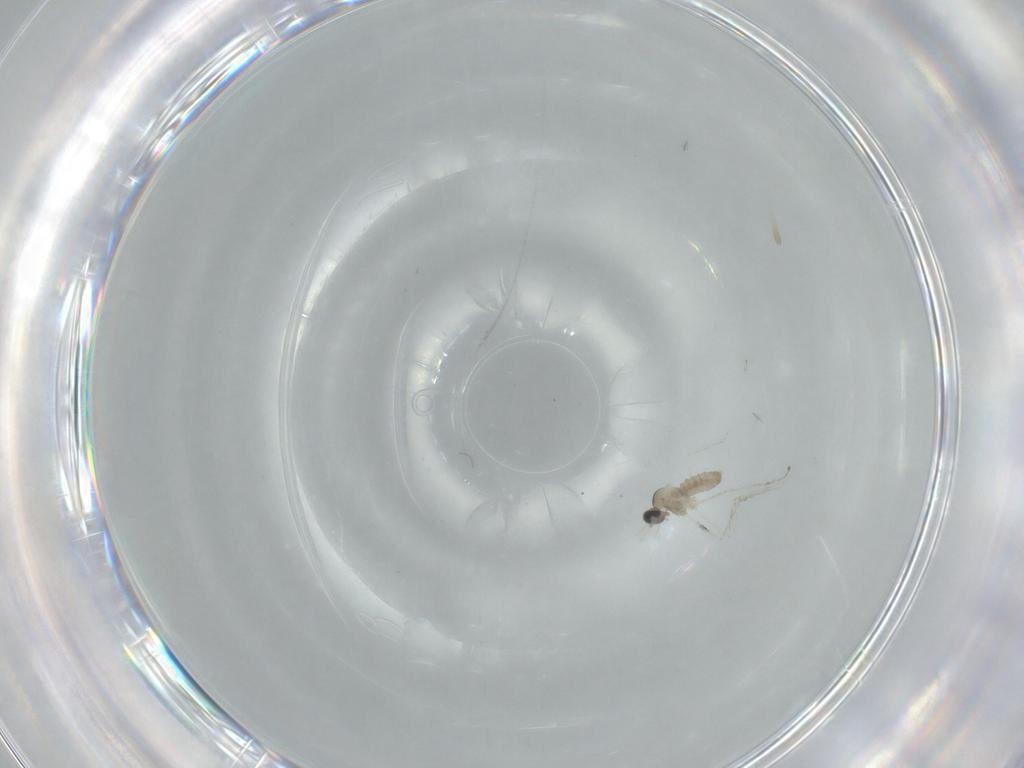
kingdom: Animalia
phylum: Arthropoda
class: Insecta
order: Diptera
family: Cecidomyiidae
